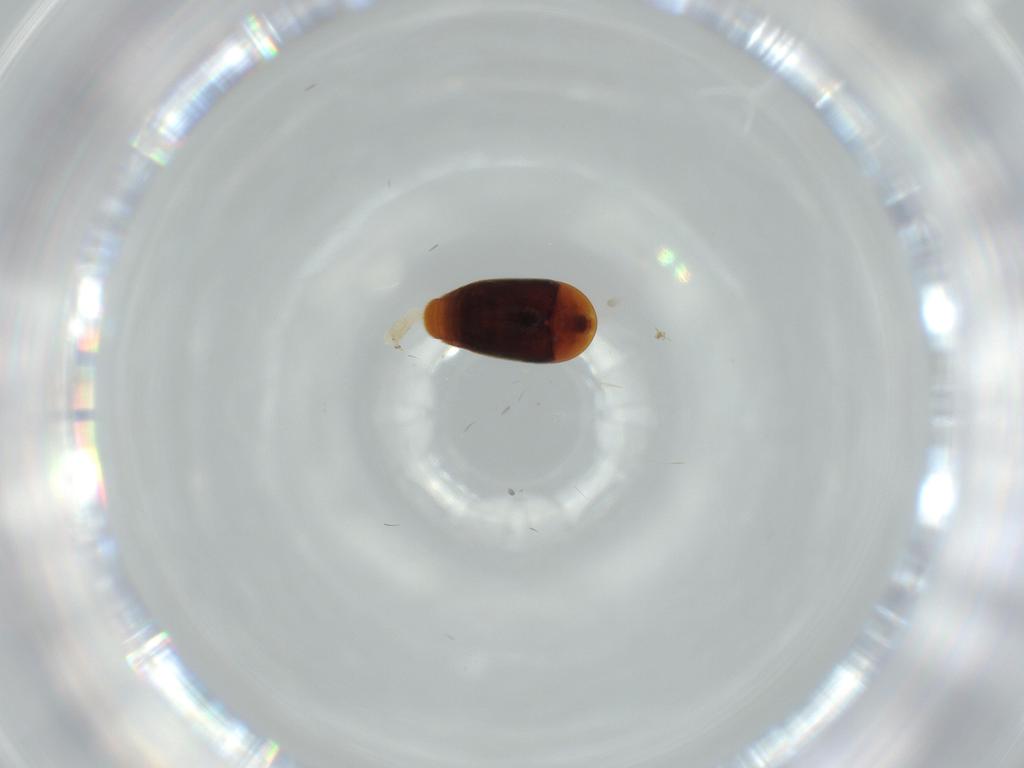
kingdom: Animalia
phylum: Arthropoda
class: Insecta
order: Coleoptera
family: Corylophidae
